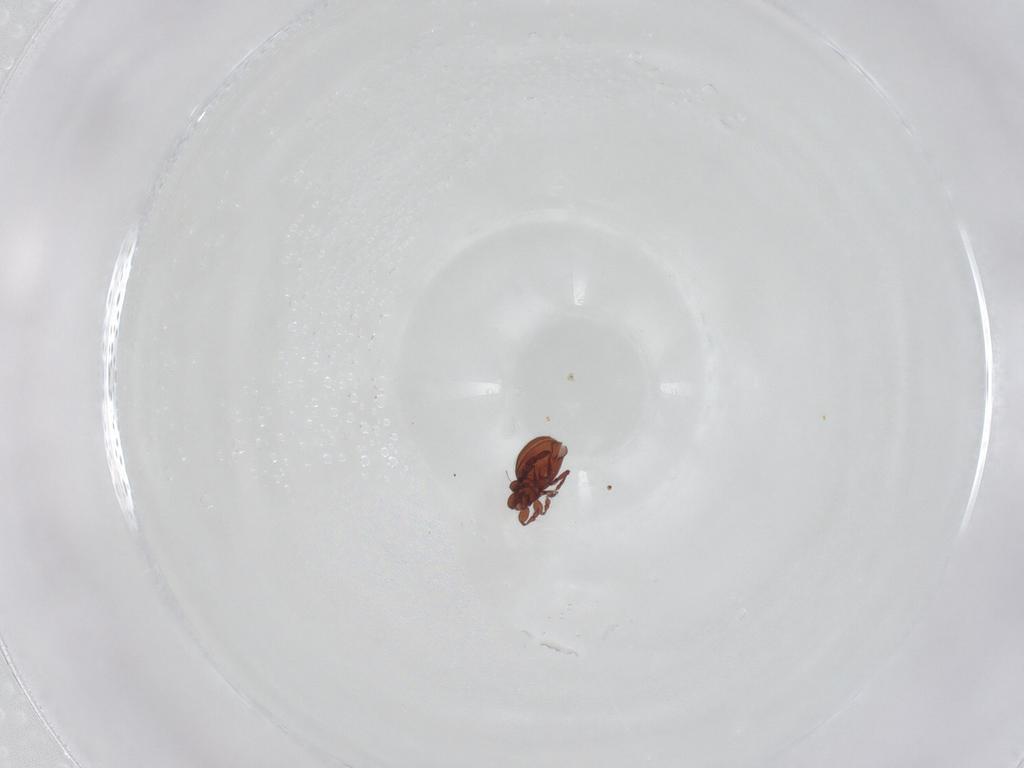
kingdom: Animalia
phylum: Arthropoda
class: Arachnida
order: Sarcoptiformes
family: Eremaeidae
